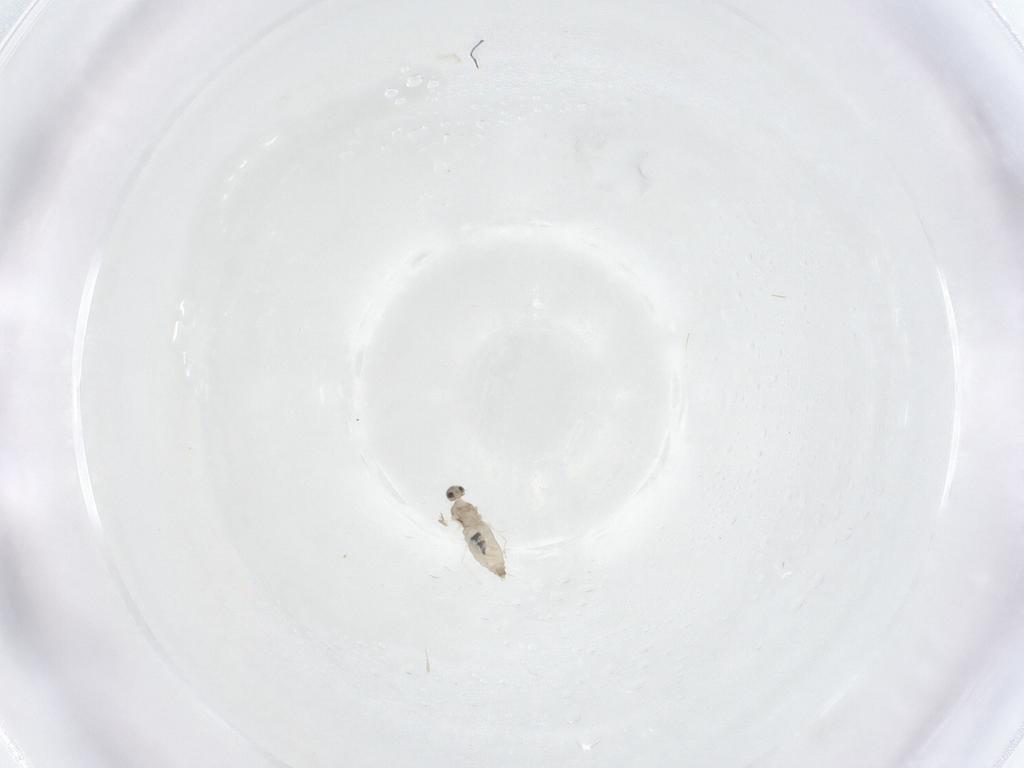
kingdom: Animalia
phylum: Arthropoda
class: Insecta
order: Diptera
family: Cecidomyiidae
